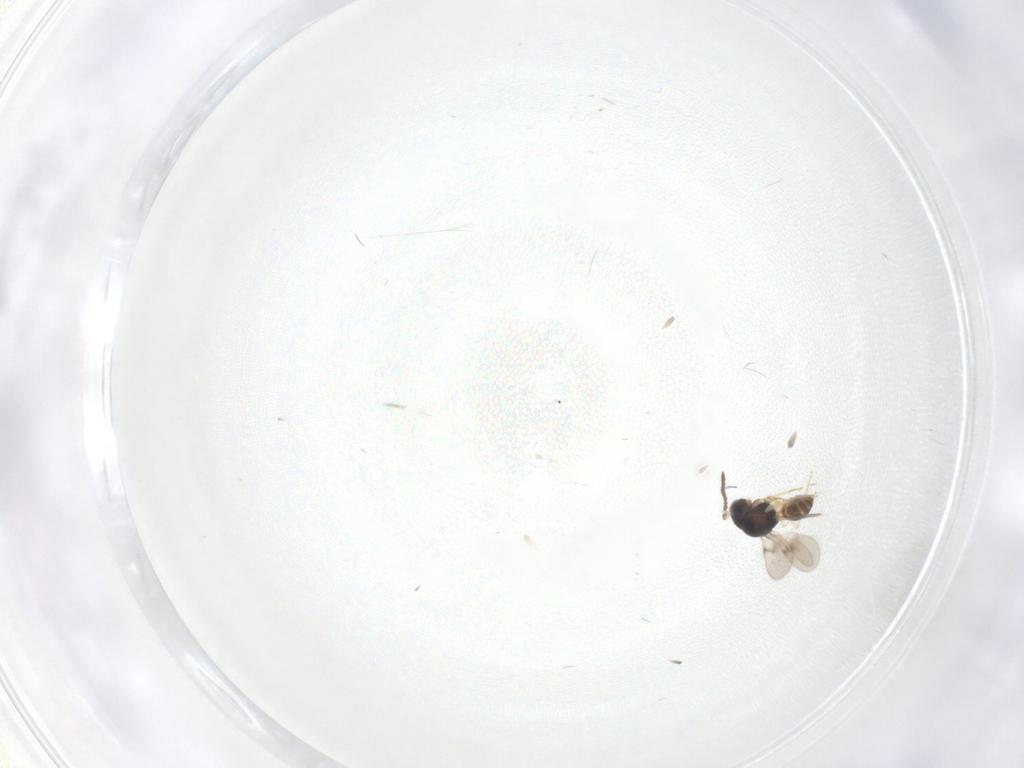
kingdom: Animalia
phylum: Arthropoda
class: Insecta
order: Hymenoptera
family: Scelionidae
